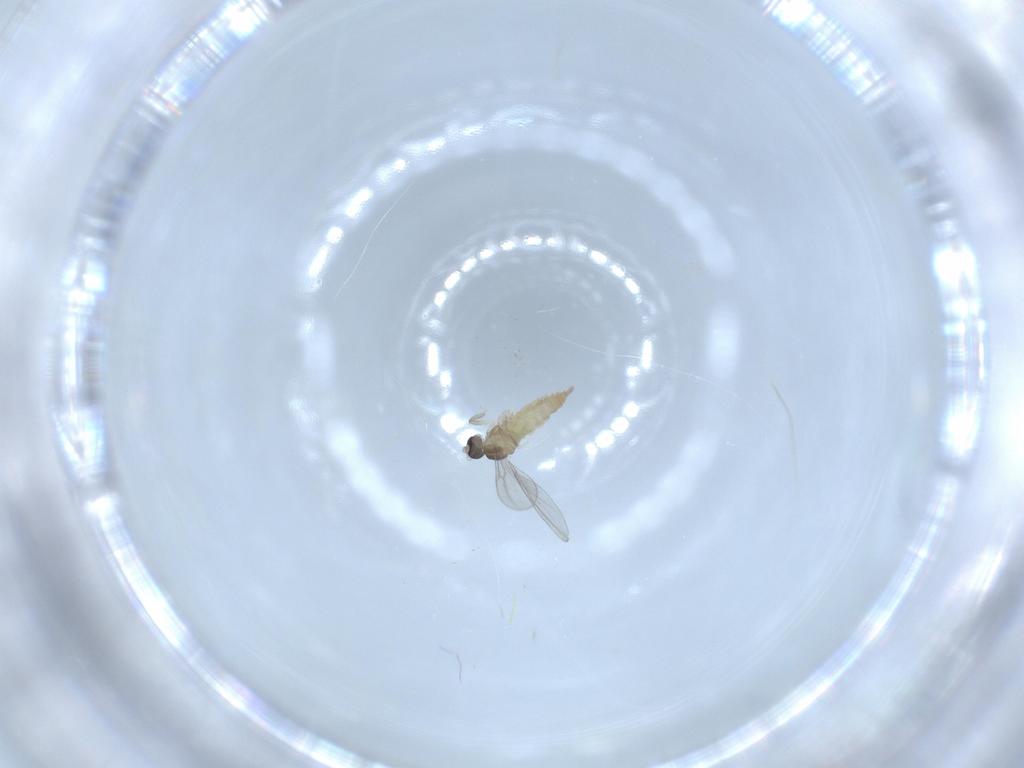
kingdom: Animalia
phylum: Arthropoda
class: Insecta
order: Diptera
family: Cecidomyiidae
